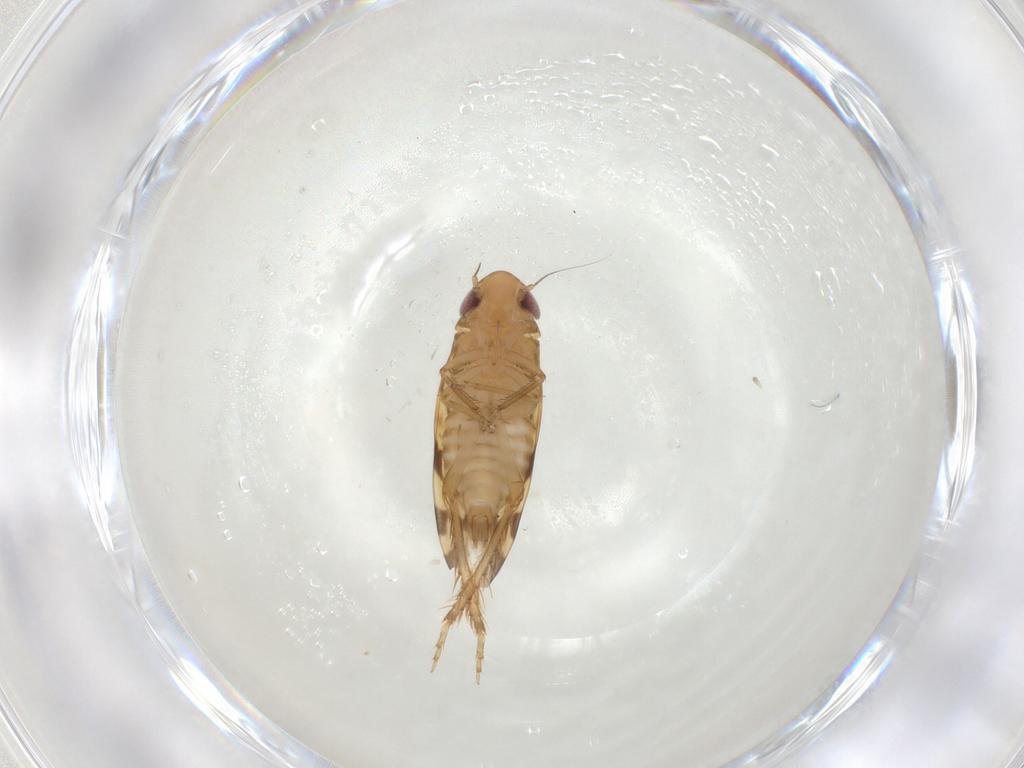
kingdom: Animalia
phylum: Arthropoda
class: Insecta
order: Hemiptera
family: Cicadellidae
